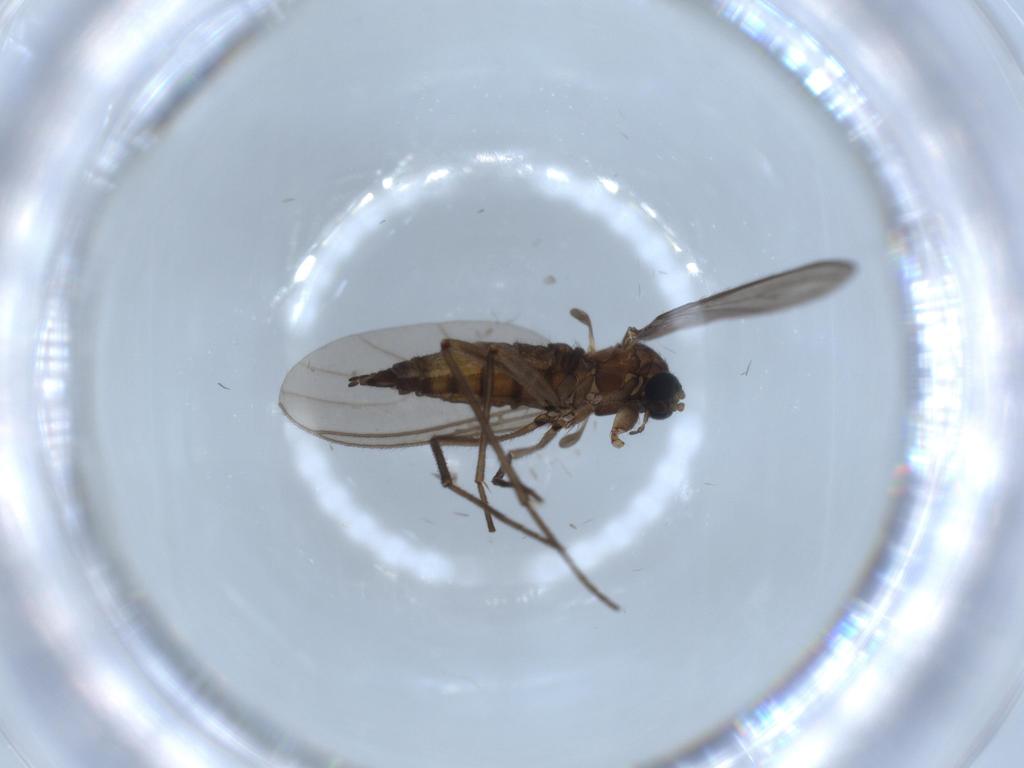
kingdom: Animalia
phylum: Arthropoda
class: Insecta
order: Diptera
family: Sciaridae
